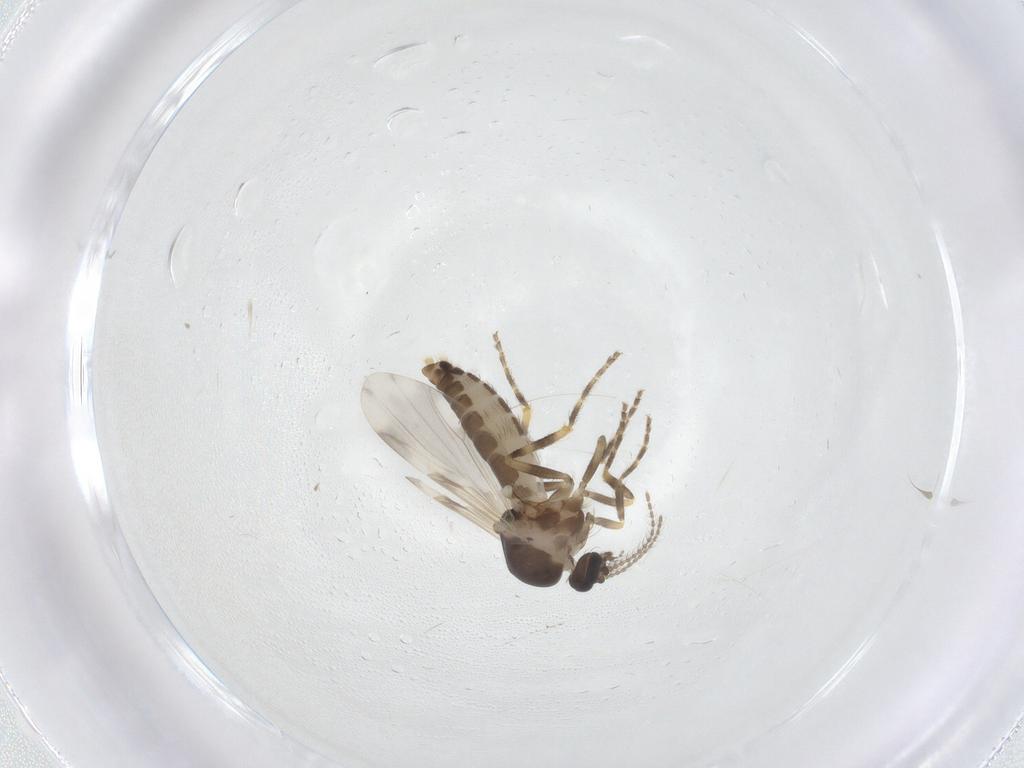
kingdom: Animalia
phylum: Arthropoda
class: Insecta
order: Diptera
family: Ceratopogonidae
